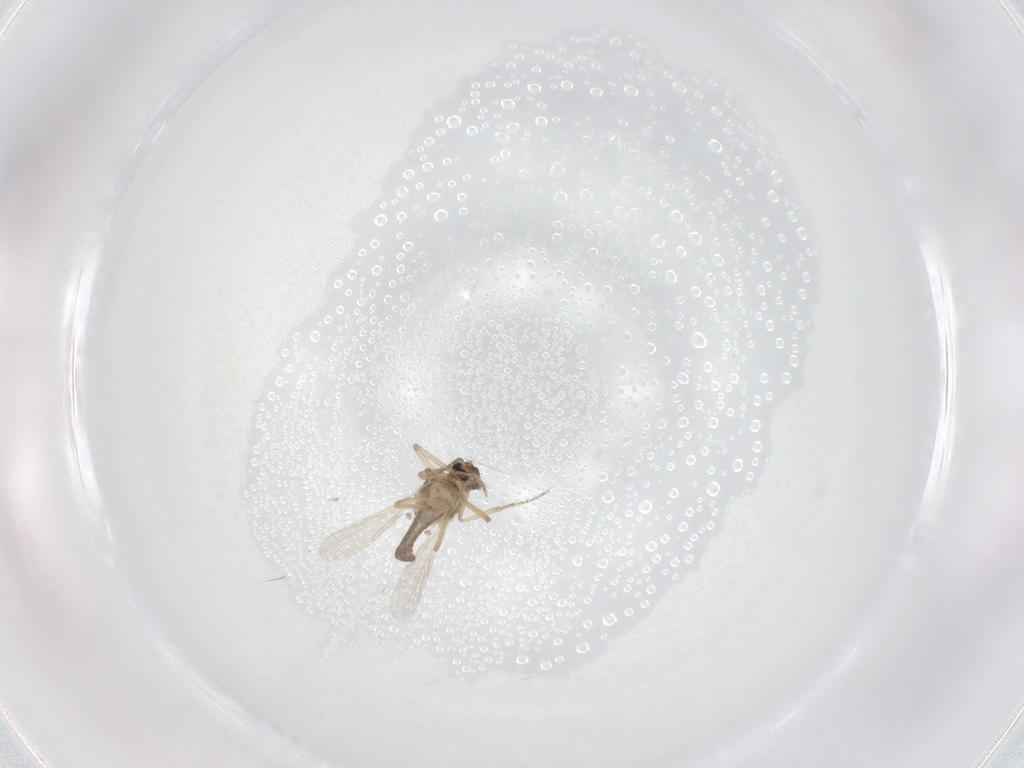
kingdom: Animalia
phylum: Arthropoda
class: Insecta
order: Diptera
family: Ceratopogonidae
